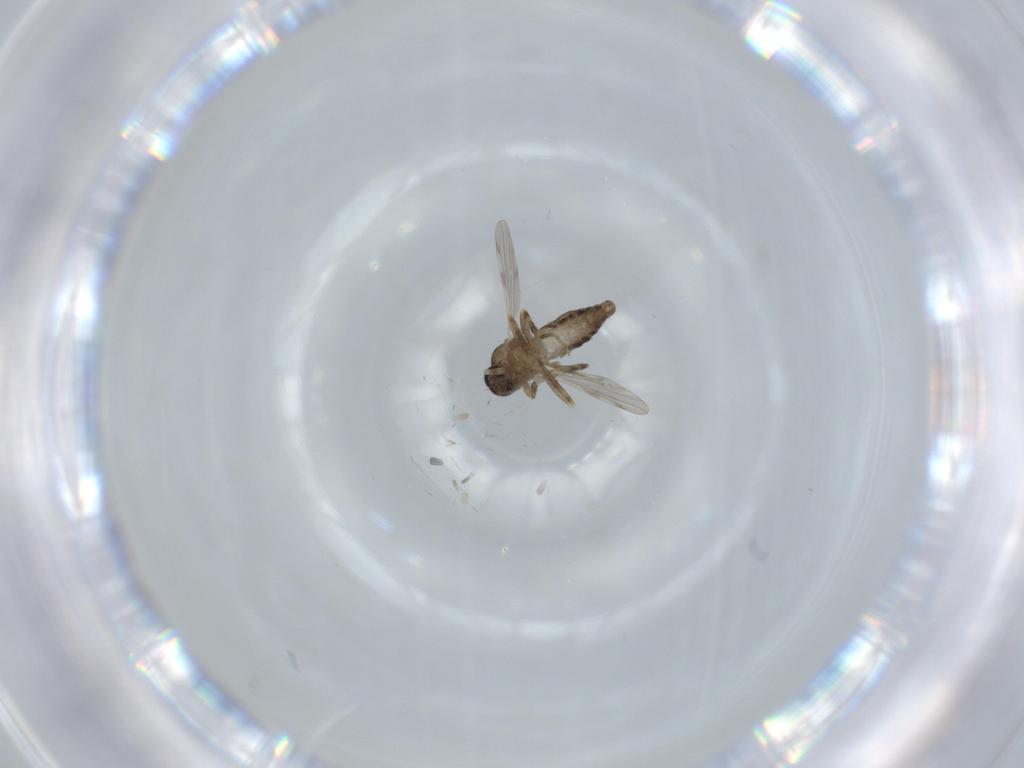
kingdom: Animalia
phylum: Arthropoda
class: Insecta
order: Diptera
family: Ceratopogonidae
